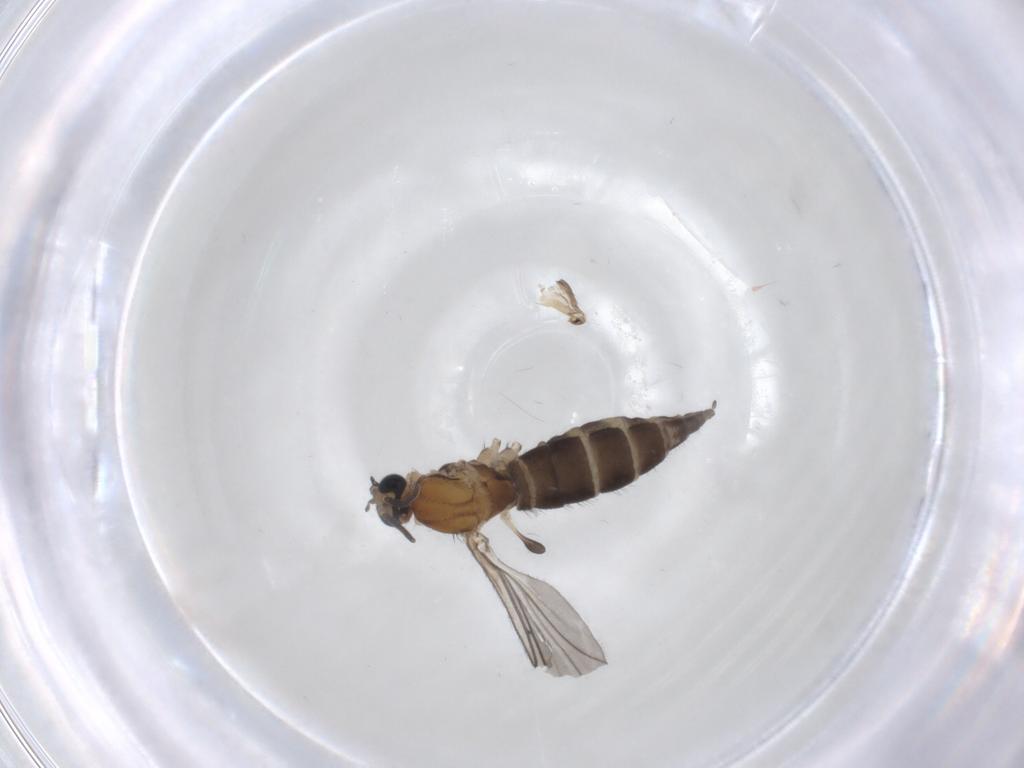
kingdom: Animalia
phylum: Arthropoda
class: Insecta
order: Diptera
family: Sciaridae
